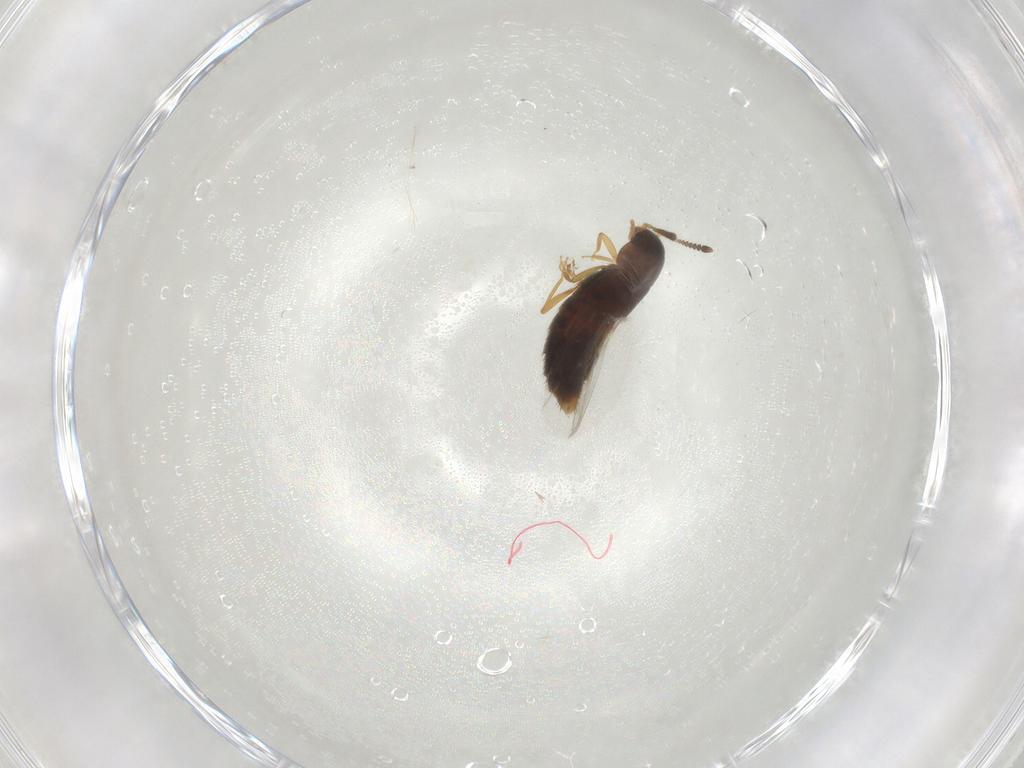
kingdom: Animalia
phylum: Arthropoda
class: Insecta
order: Coleoptera
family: Staphylinidae
